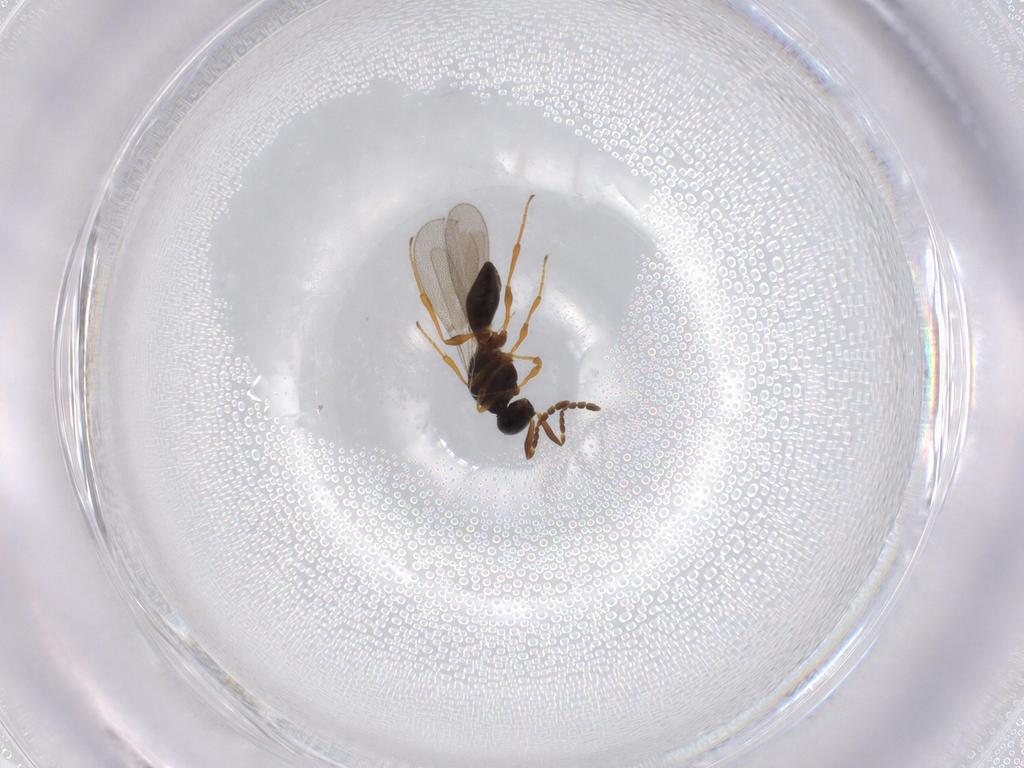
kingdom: Animalia
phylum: Arthropoda
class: Insecta
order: Hymenoptera
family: Platygastridae
